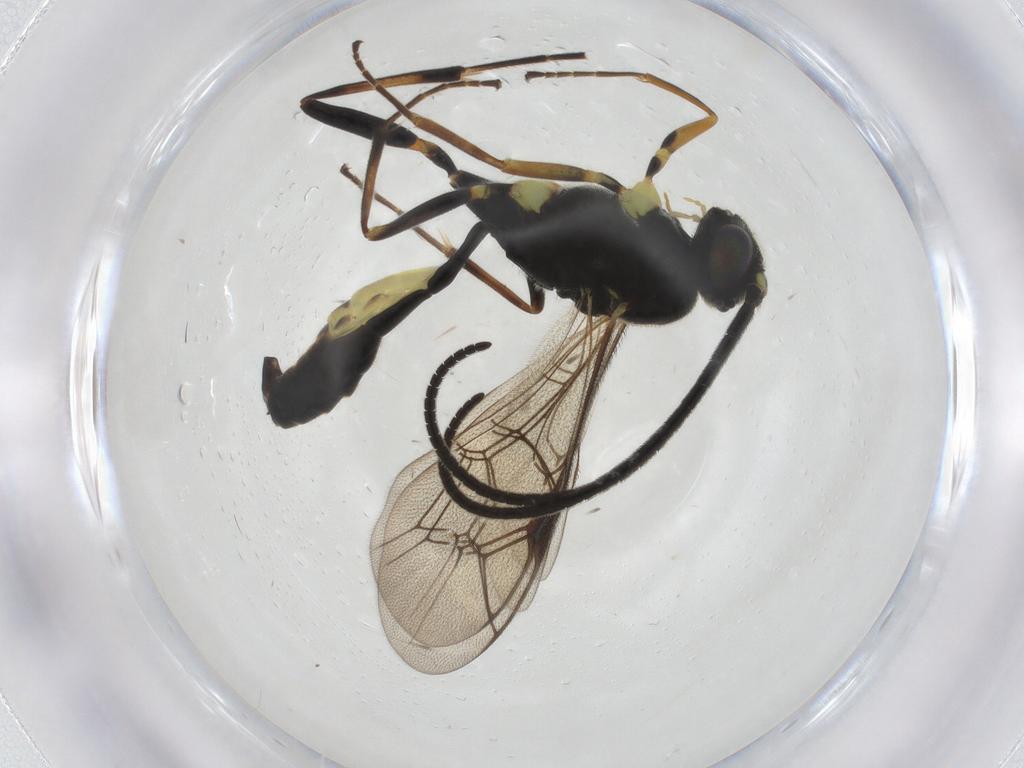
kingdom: Animalia
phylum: Arthropoda
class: Insecta
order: Hymenoptera
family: Ichneumonidae
